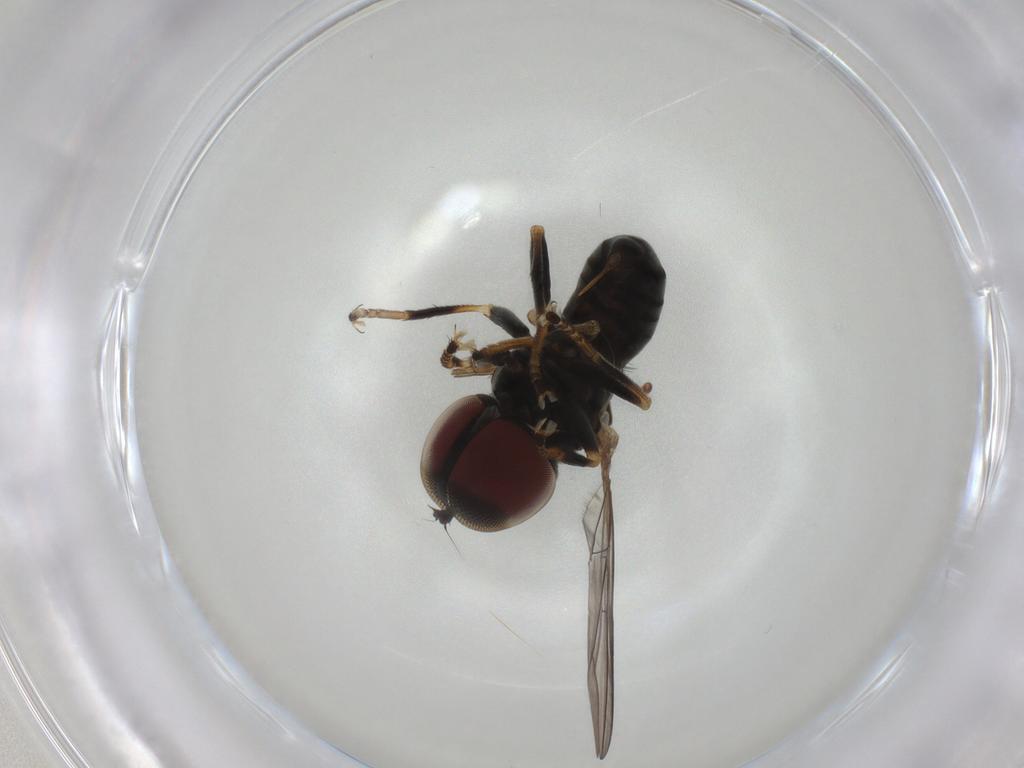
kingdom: Animalia
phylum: Arthropoda
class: Insecta
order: Diptera
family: Pipunculidae
